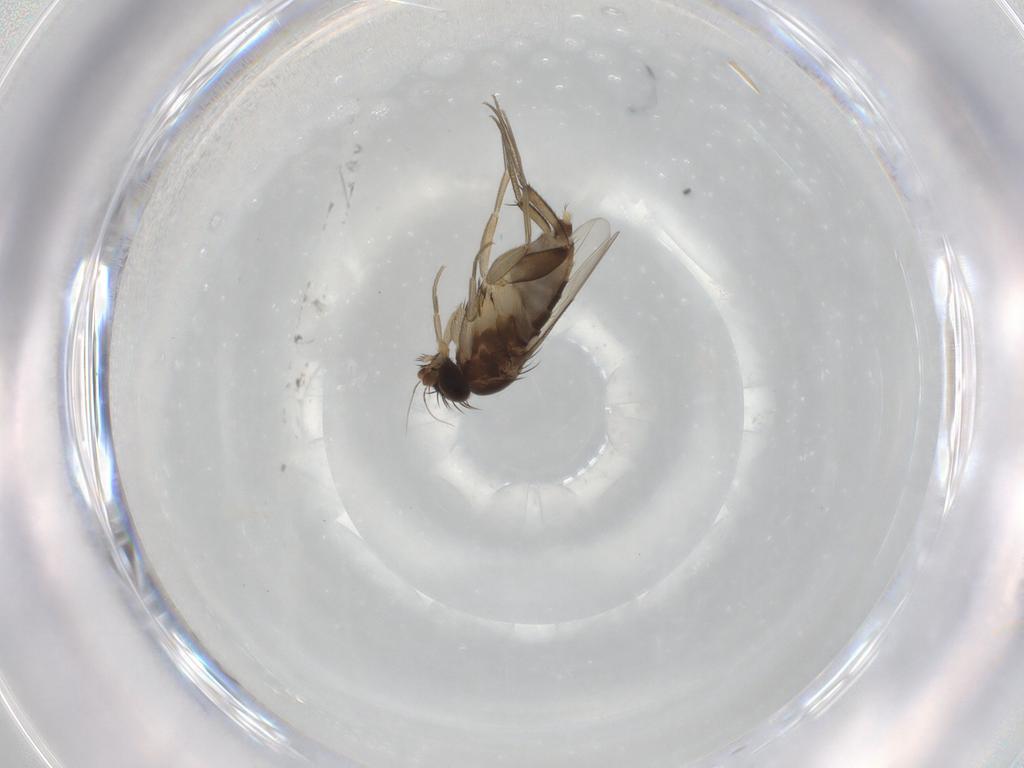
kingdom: Animalia
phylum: Arthropoda
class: Insecta
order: Diptera
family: Phoridae
